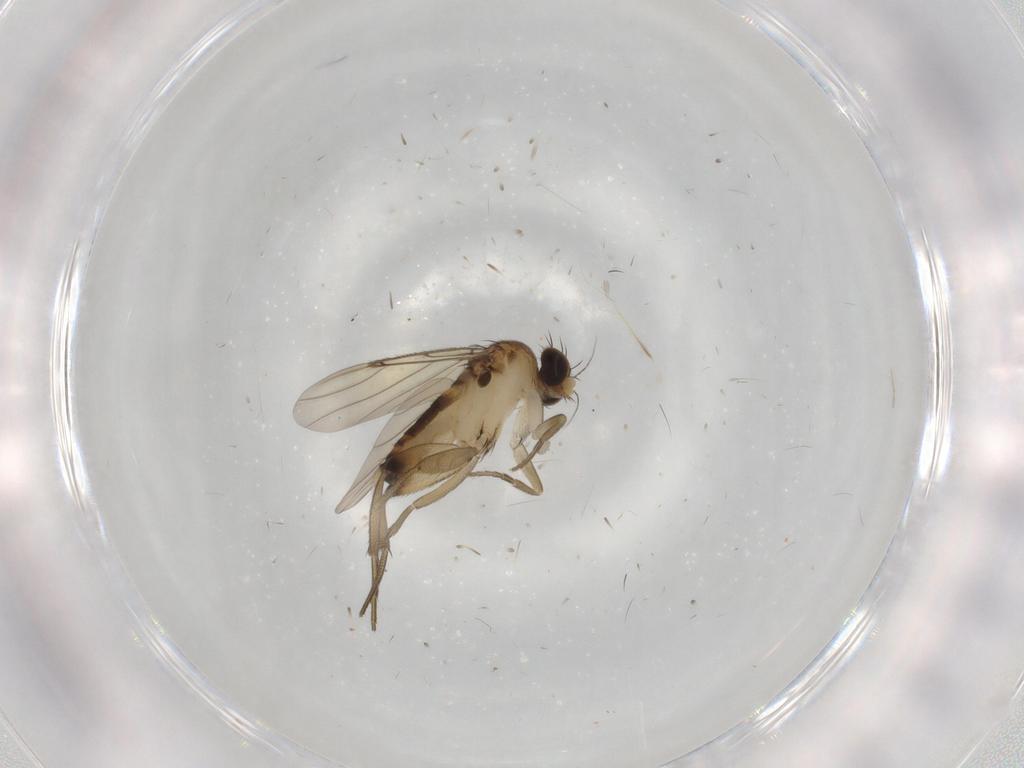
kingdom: Animalia
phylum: Arthropoda
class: Insecta
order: Diptera
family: Phoridae
